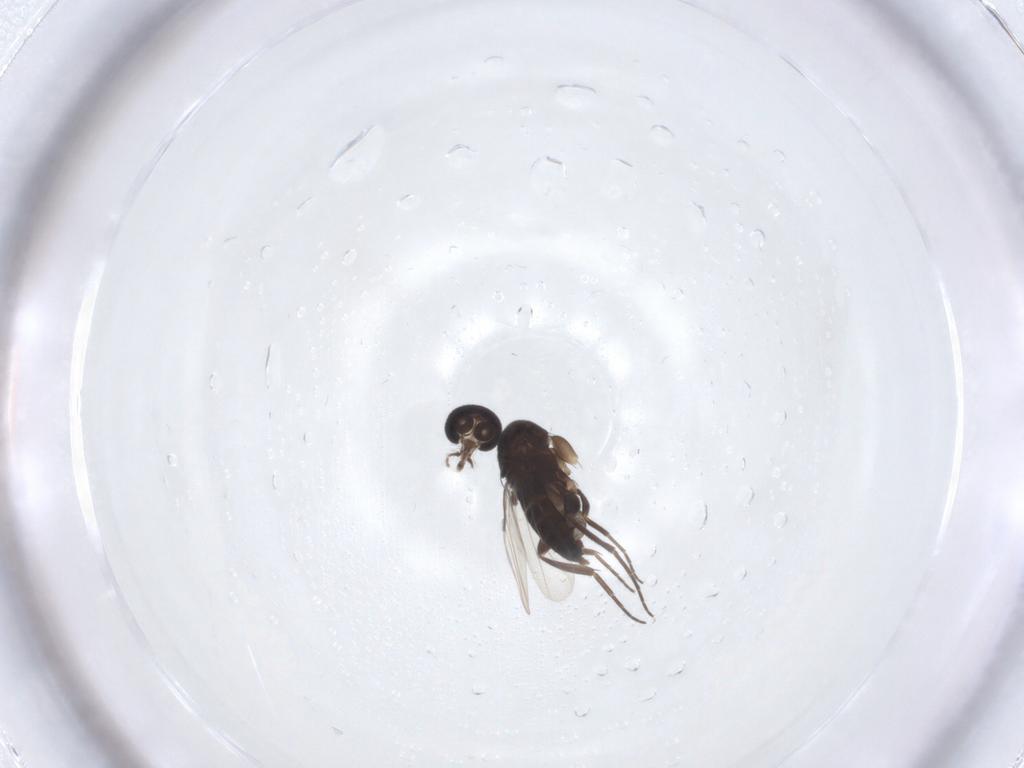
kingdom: Animalia
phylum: Arthropoda
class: Insecta
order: Diptera
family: Ceratopogonidae
